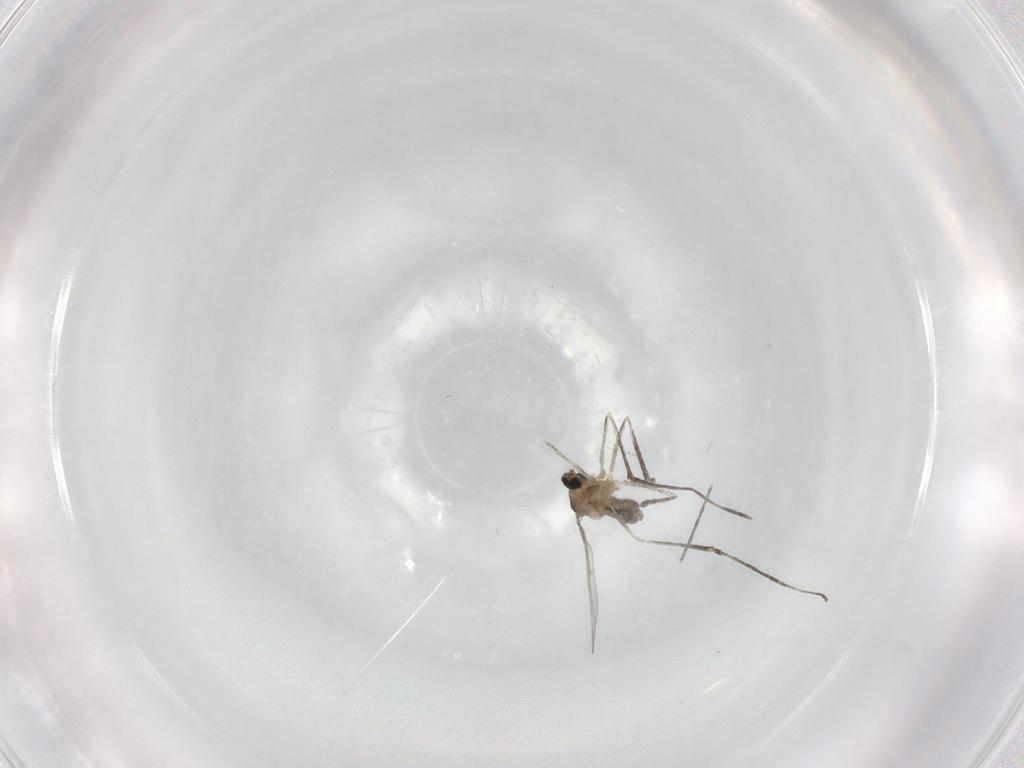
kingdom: Animalia
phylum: Arthropoda
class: Insecta
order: Diptera
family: Cecidomyiidae
